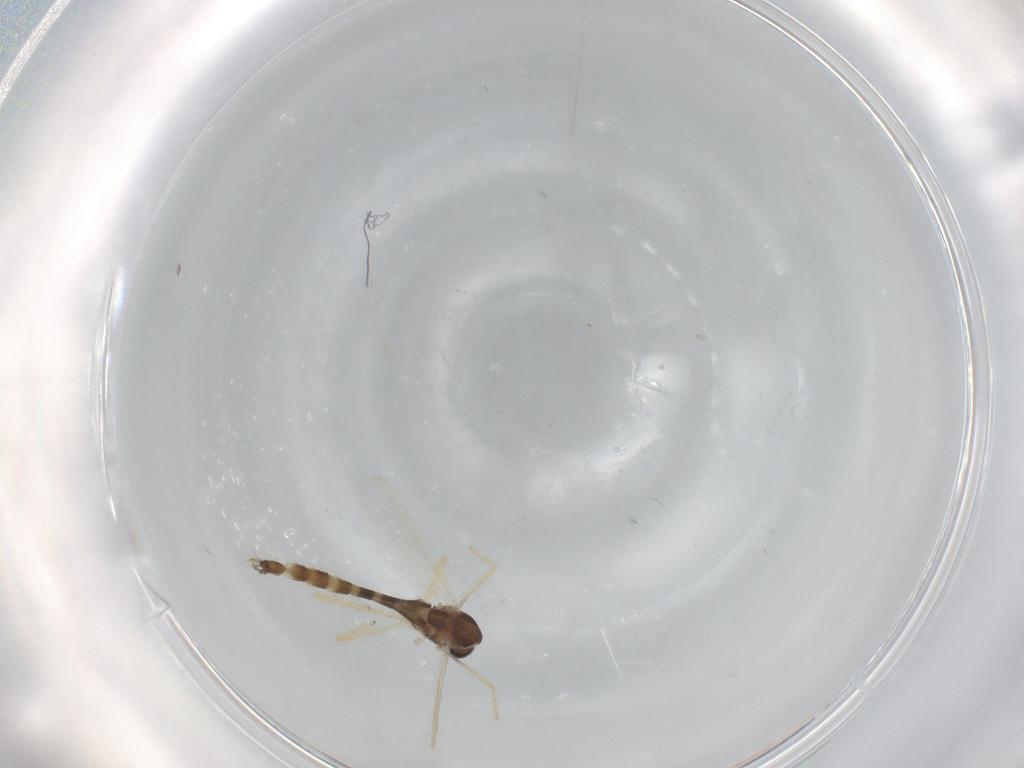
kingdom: Animalia
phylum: Arthropoda
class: Insecta
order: Diptera
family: Chironomidae
